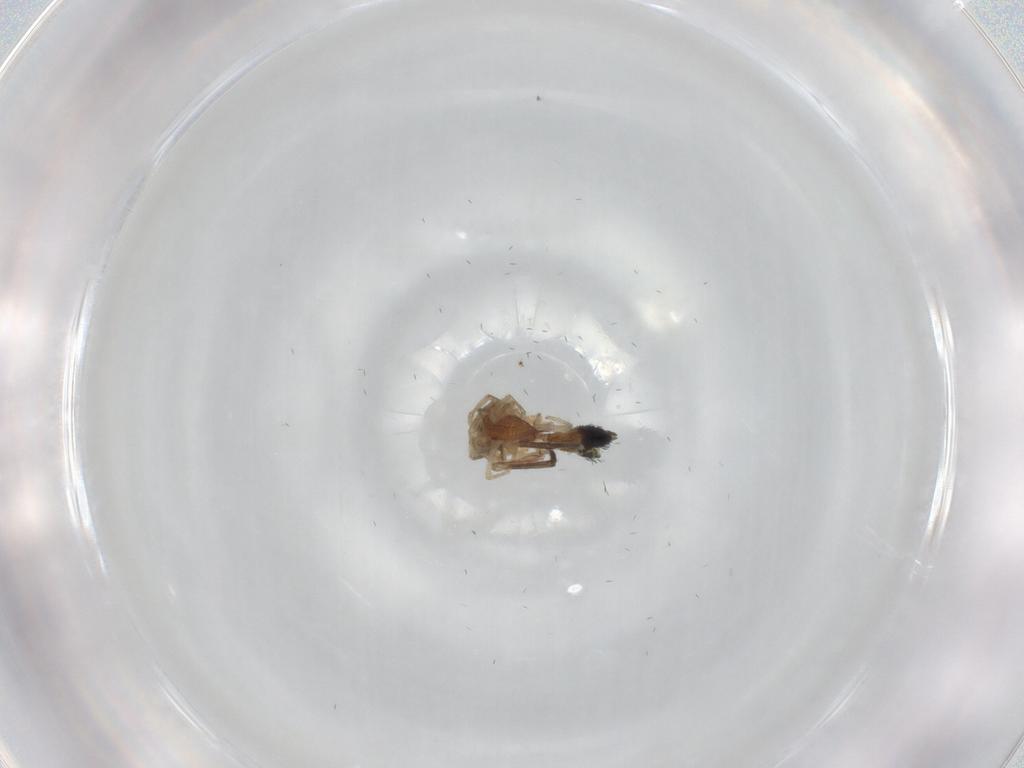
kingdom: Animalia
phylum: Arthropoda
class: Arachnida
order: Araneae
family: Gnaphosidae
